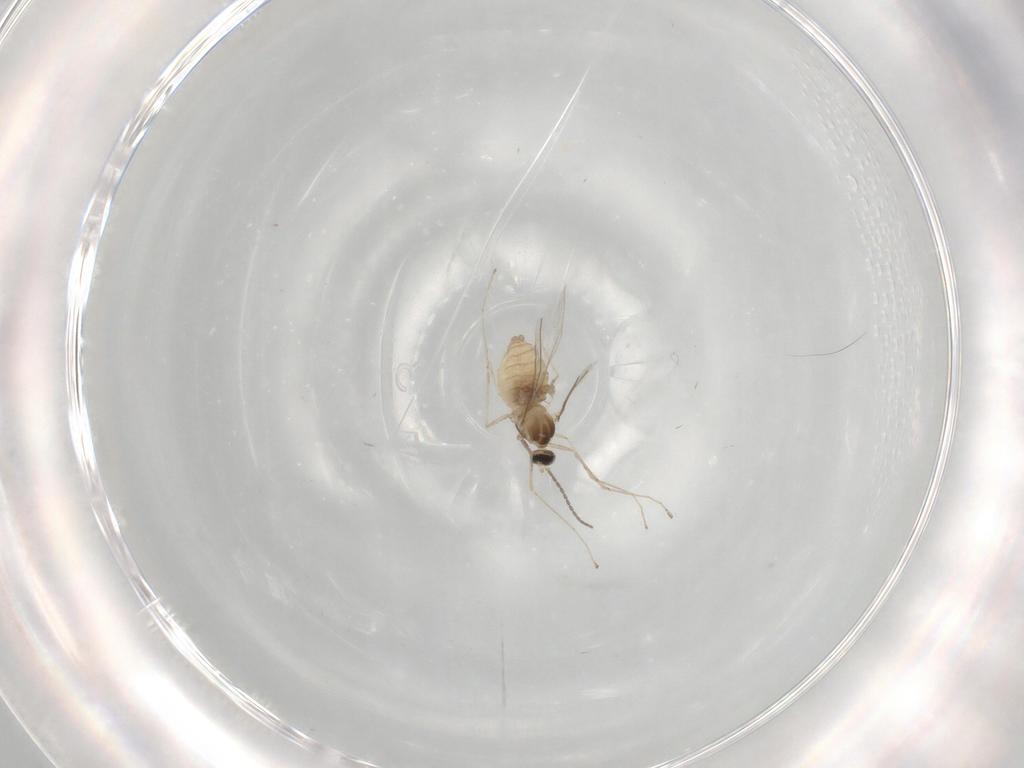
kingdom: Animalia
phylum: Arthropoda
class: Insecta
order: Diptera
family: Cecidomyiidae
